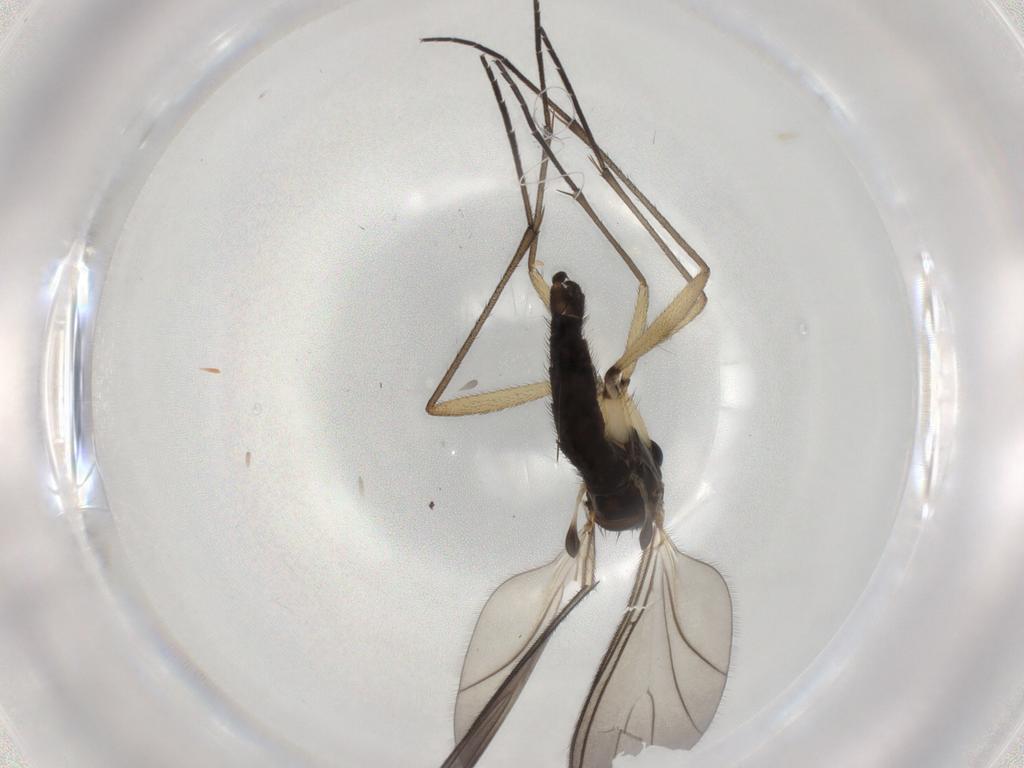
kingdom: Animalia
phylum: Arthropoda
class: Insecta
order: Diptera
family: Sciaridae
